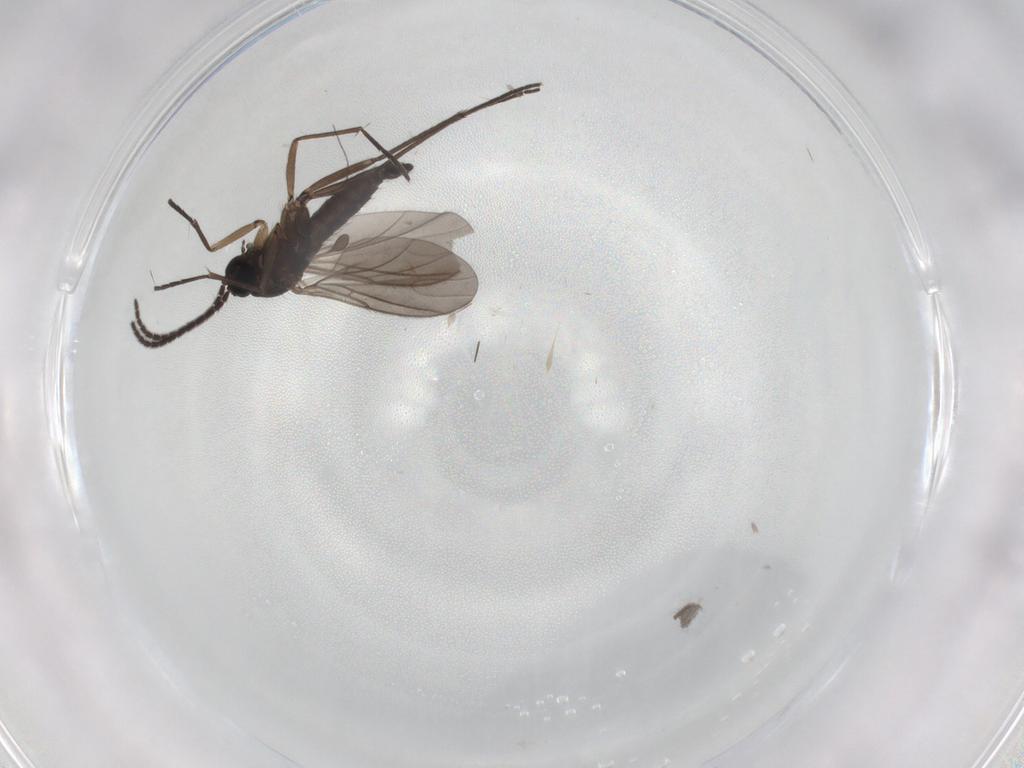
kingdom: Animalia
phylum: Arthropoda
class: Insecta
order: Diptera
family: Sciaridae
